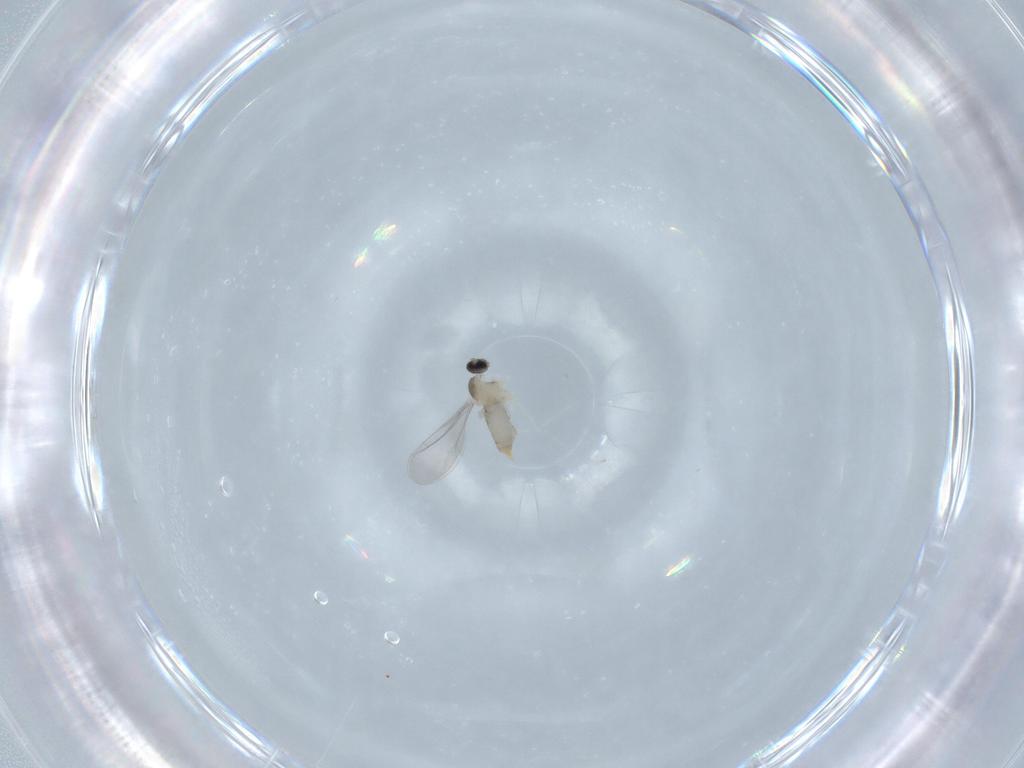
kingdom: Animalia
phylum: Arthropoda
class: Insecta
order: Diptera
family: Cecidomyiidae
